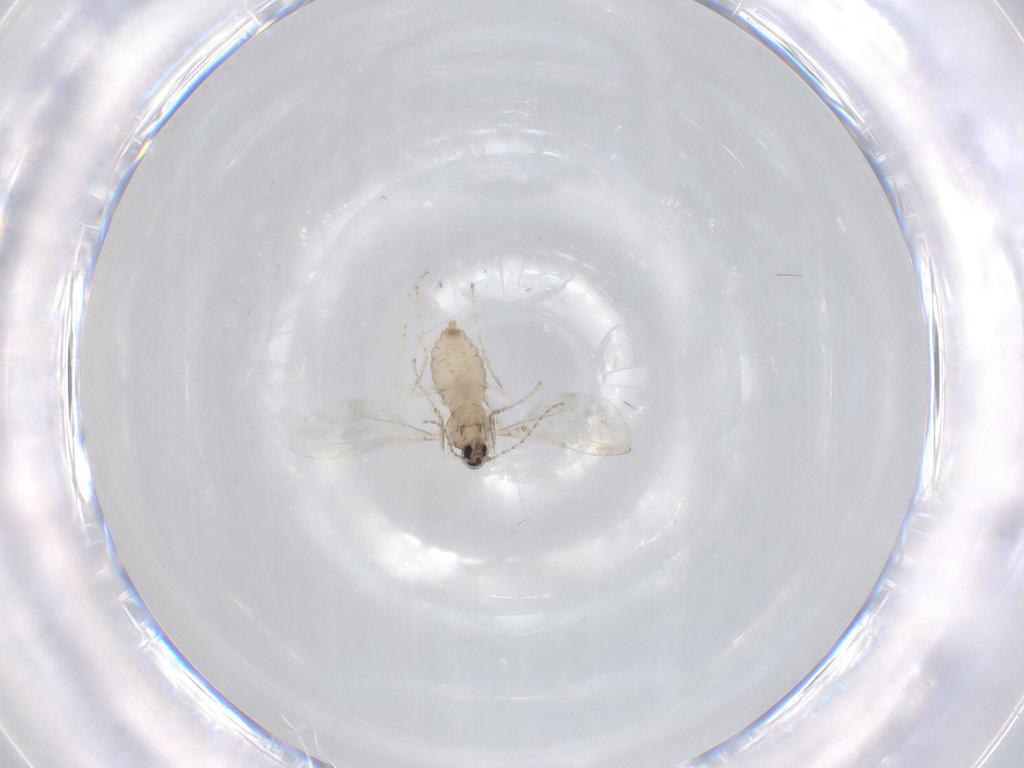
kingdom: Animalia
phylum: Arthropoda
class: Insecta
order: Diptera
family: Cecidomyiidae
